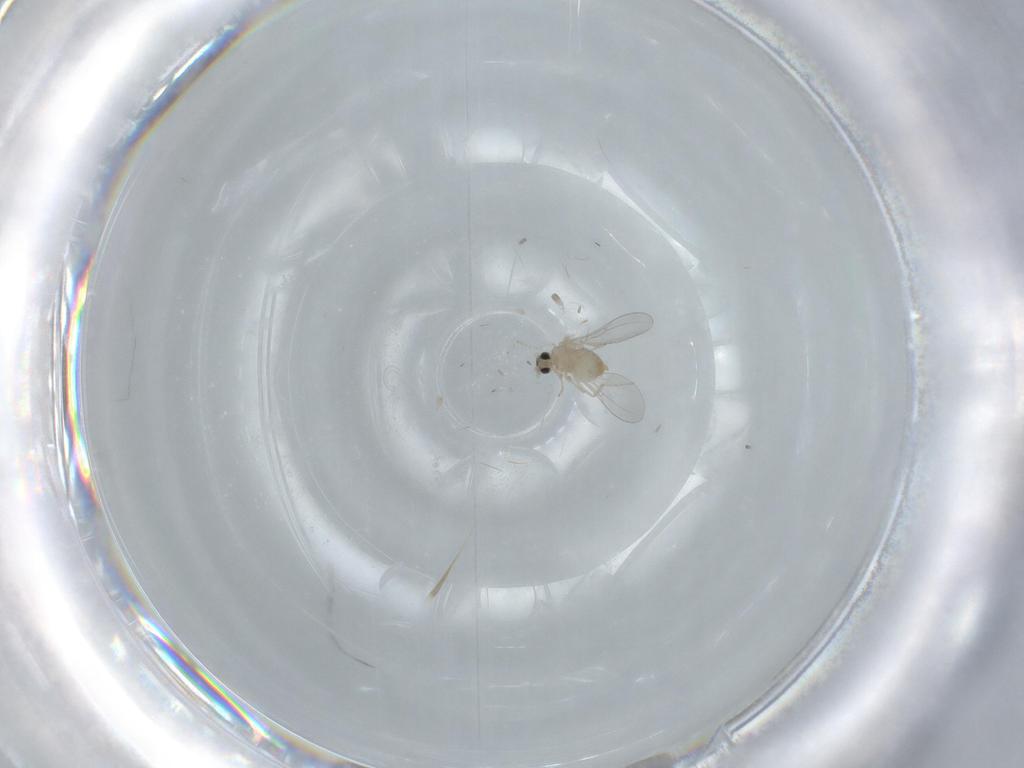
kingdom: Animalia
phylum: Arthropoda
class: Insecta
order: Diptera
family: Cecidomyiidae
